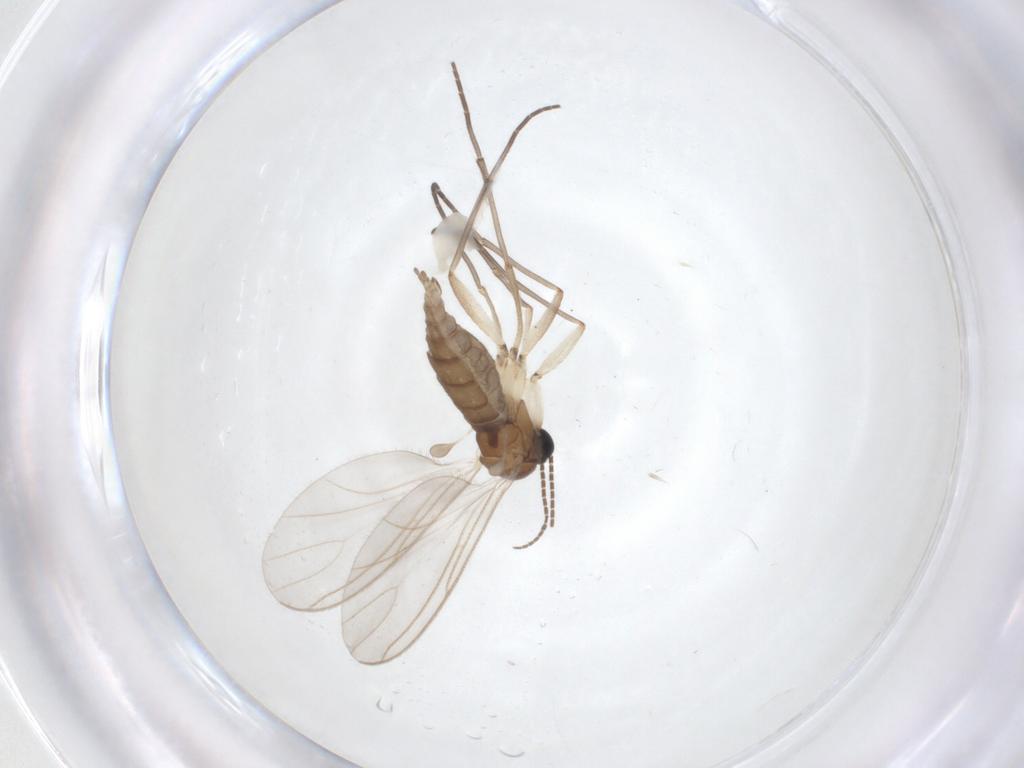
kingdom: Animalia
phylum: Arthropoda
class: Insecta
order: Diptera
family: Sciaridae
